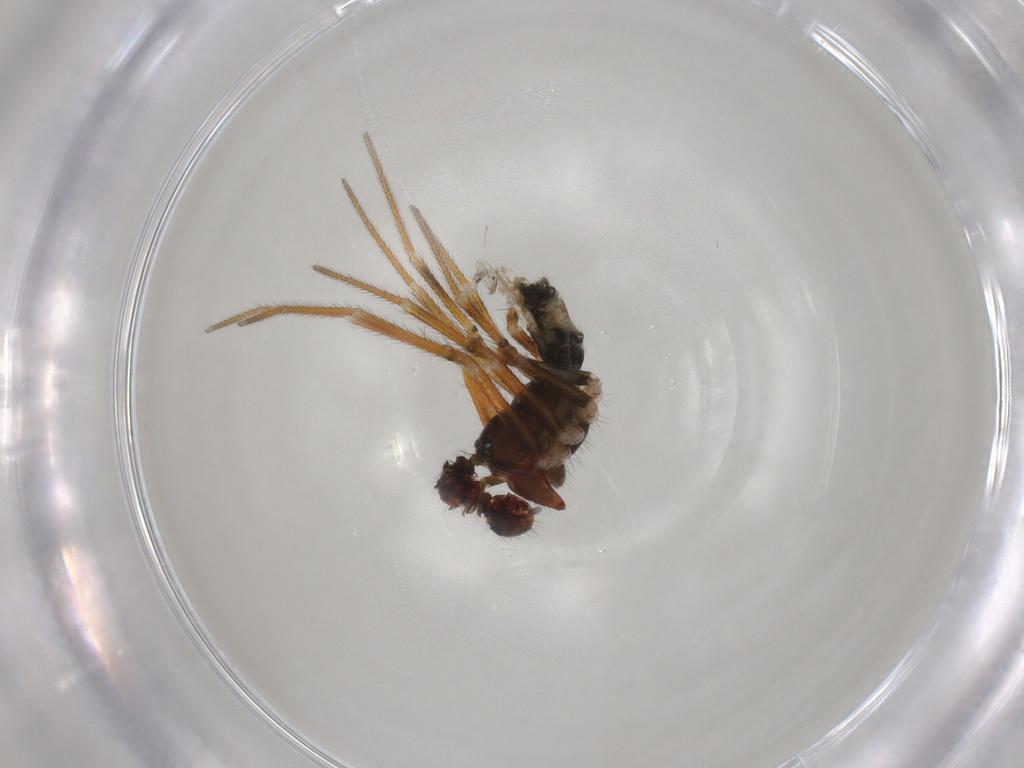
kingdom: Animalia
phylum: Arthropoda
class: Arachnida
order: Araneae
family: Linyphiidae
